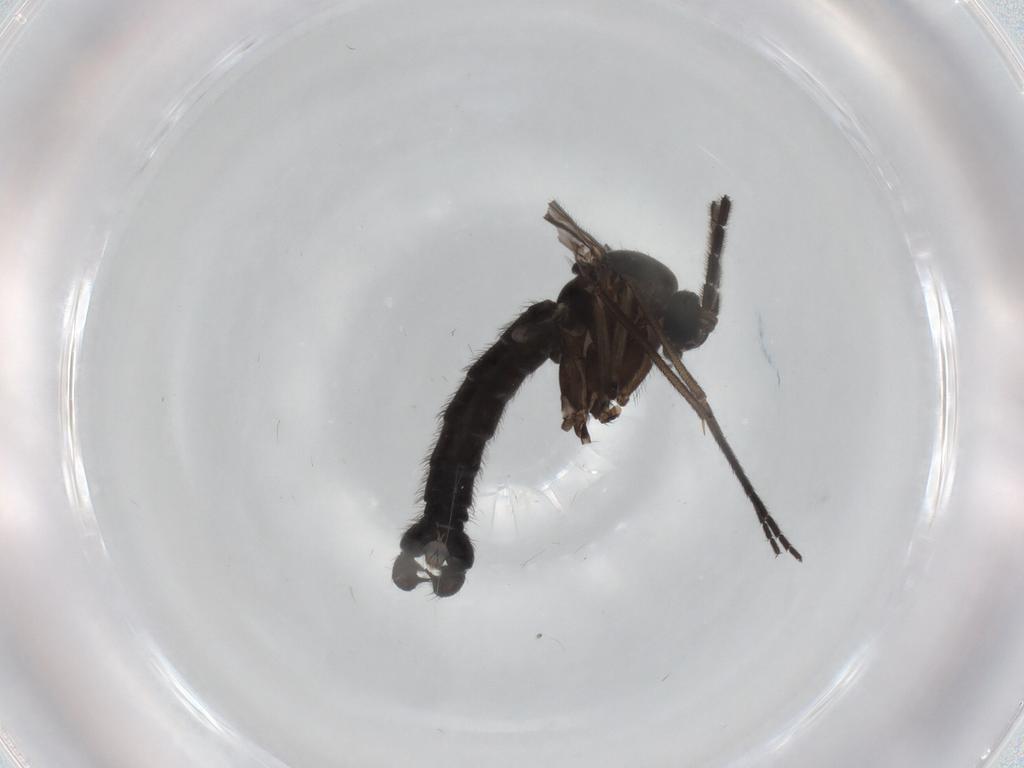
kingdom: Animalia
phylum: Arthropoda
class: Insecta
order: Diptera
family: Sciaridae
